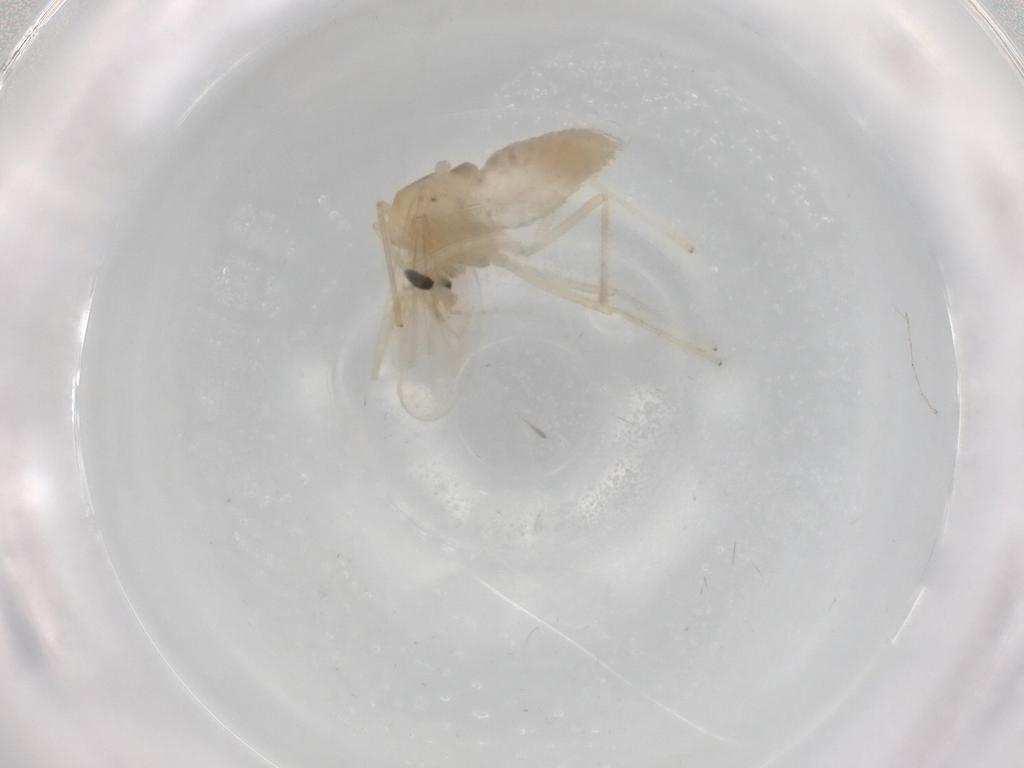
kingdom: Animalia
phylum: Arthropoda
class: Insecta
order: Diptera
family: Chironomidae
